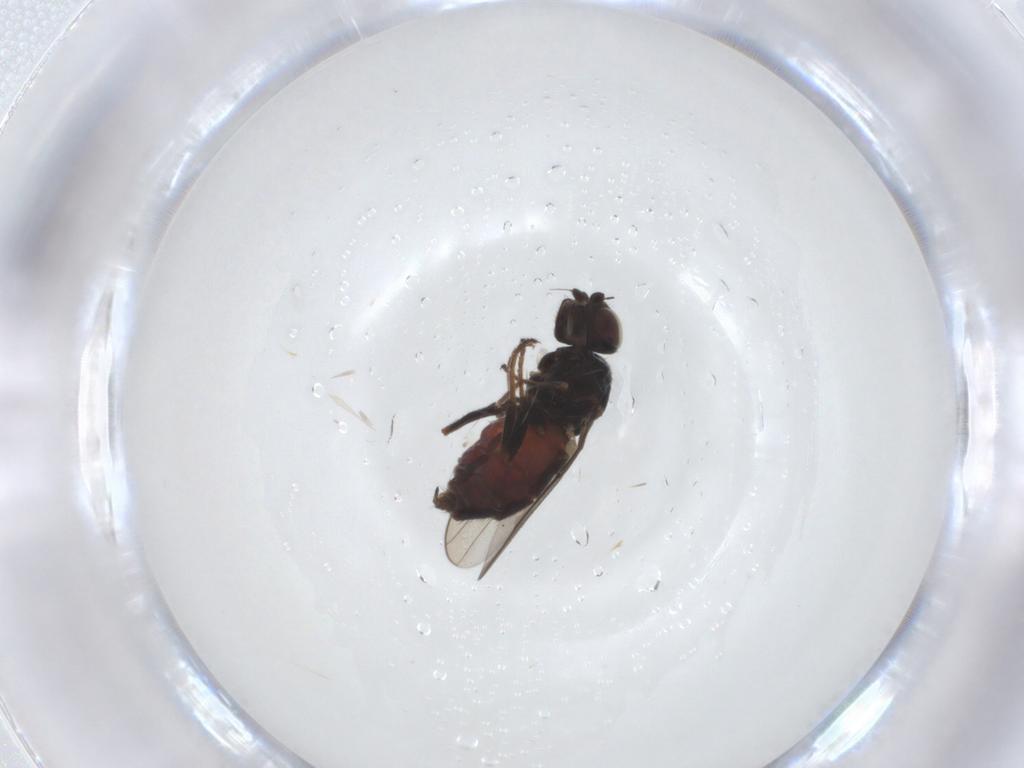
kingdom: Animalia
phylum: Arthropoda
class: Insecta
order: Diptera
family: Chloropidae
